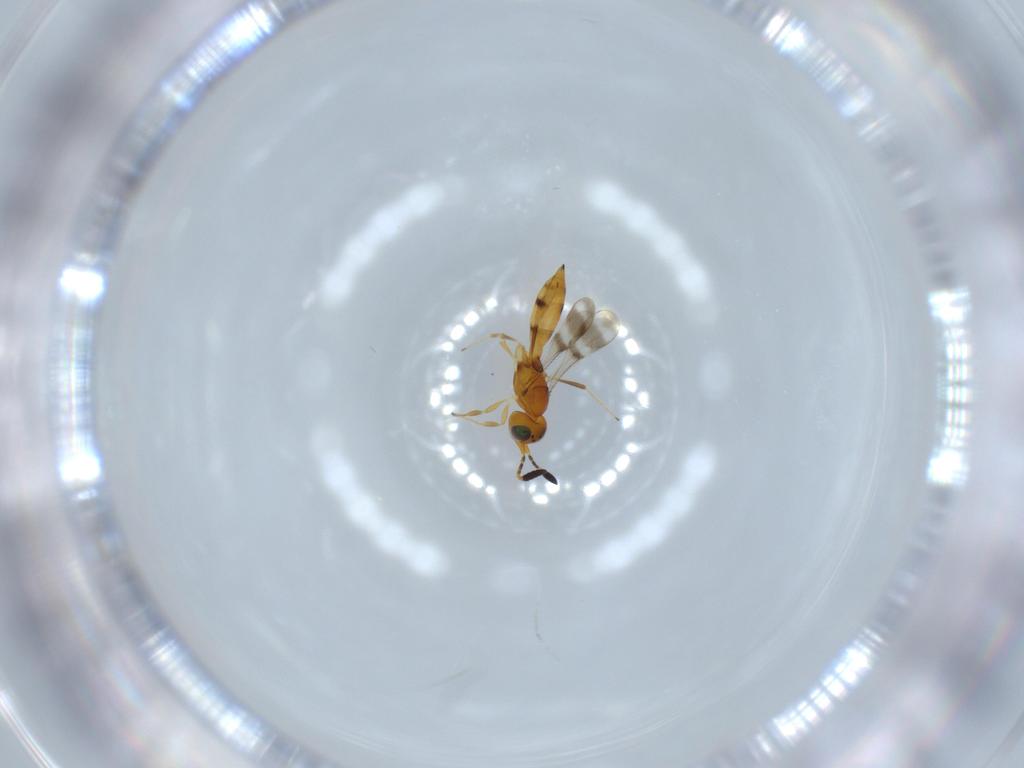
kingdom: Animalia
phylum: Arthropoda
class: Insecta
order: Hymenoptera
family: Scelionidae
